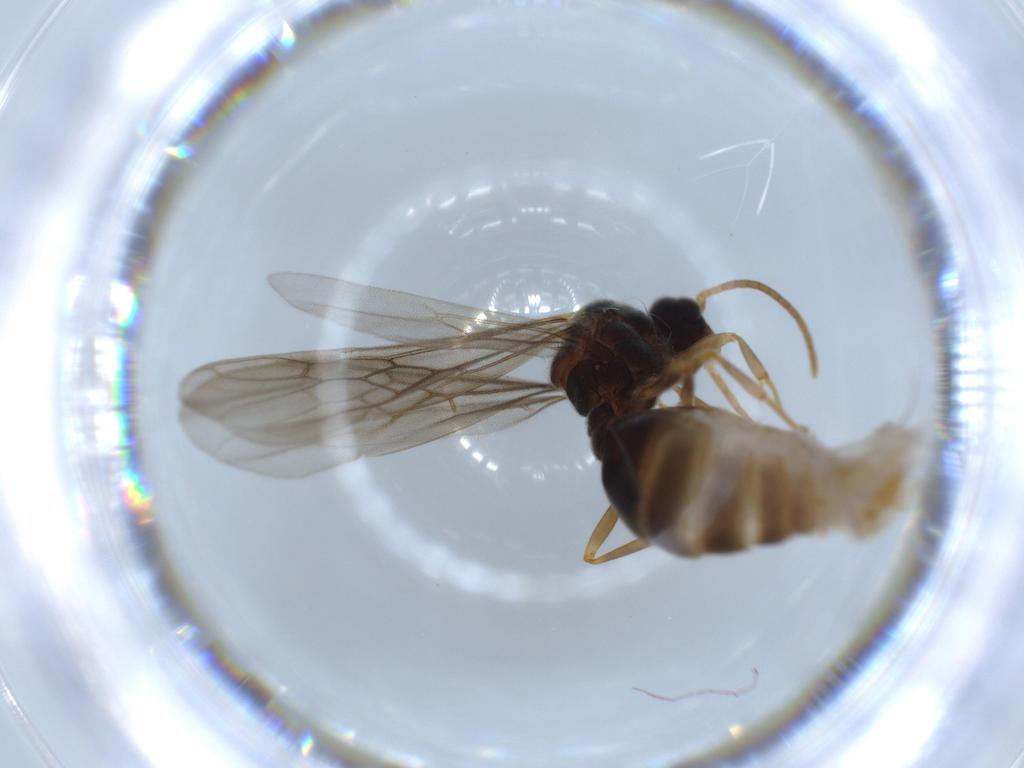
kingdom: Animalia
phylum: Arthropoda
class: Insecta
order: Hymenoptera
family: Formicidae
